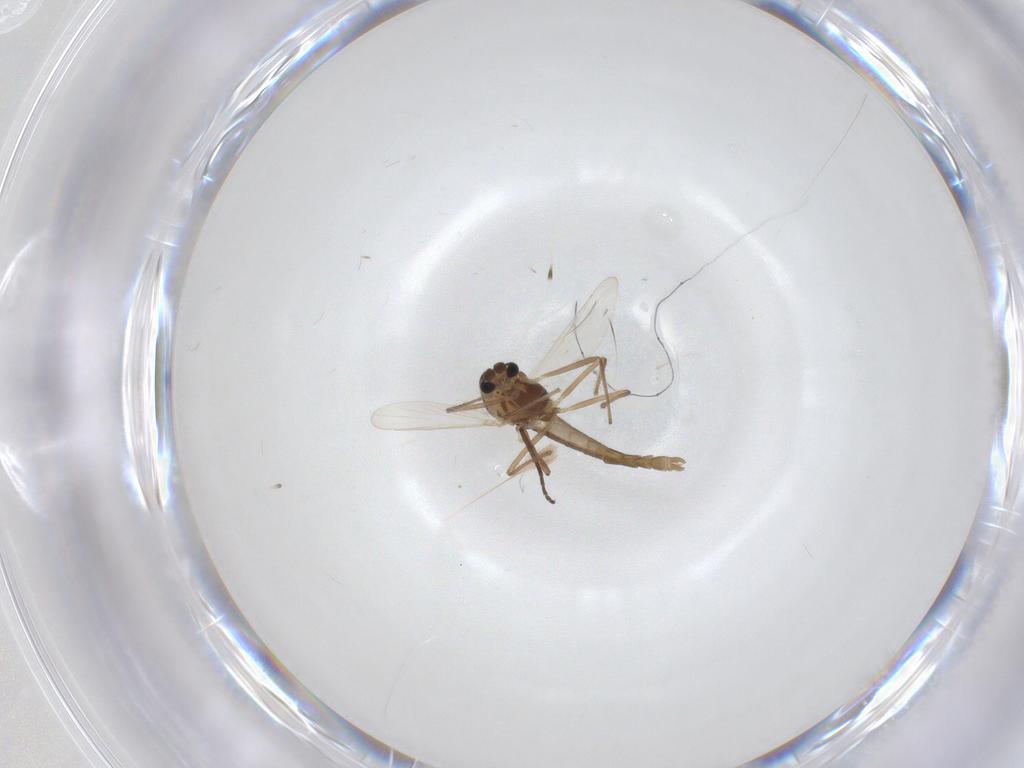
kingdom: Animalia
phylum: Arthropoda
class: Insecta
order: Diptera
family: Chironomidae
